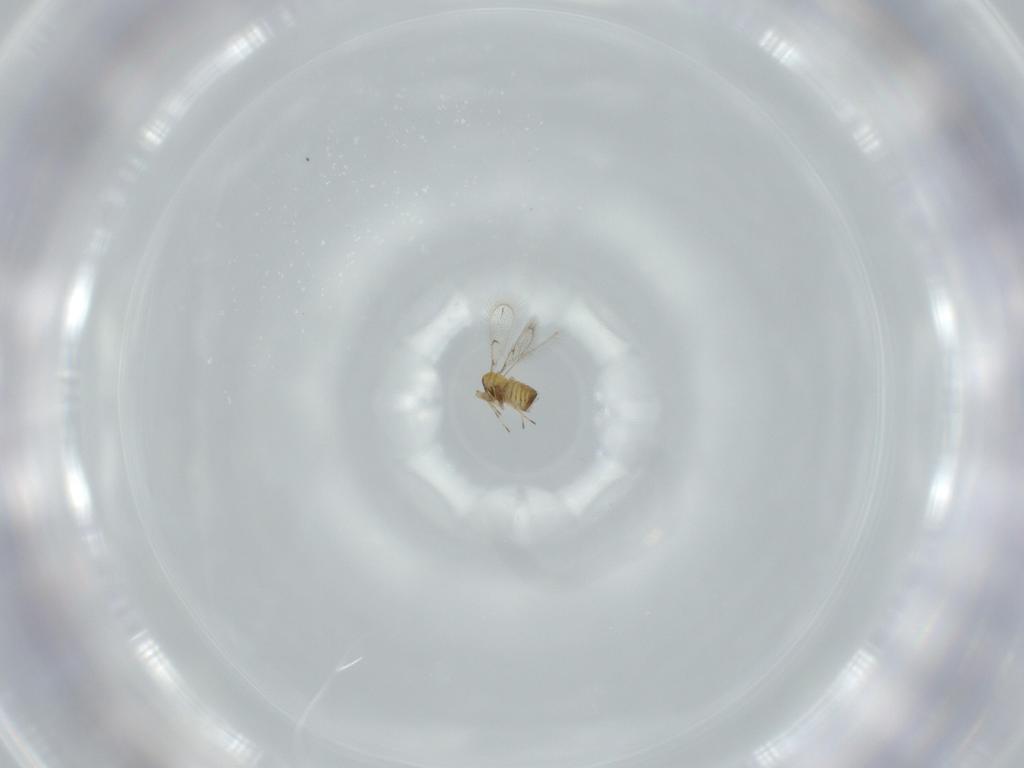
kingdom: Animalia
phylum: Arthropoda
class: Insecta
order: Hymenoptera
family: Trichogrammatidae
